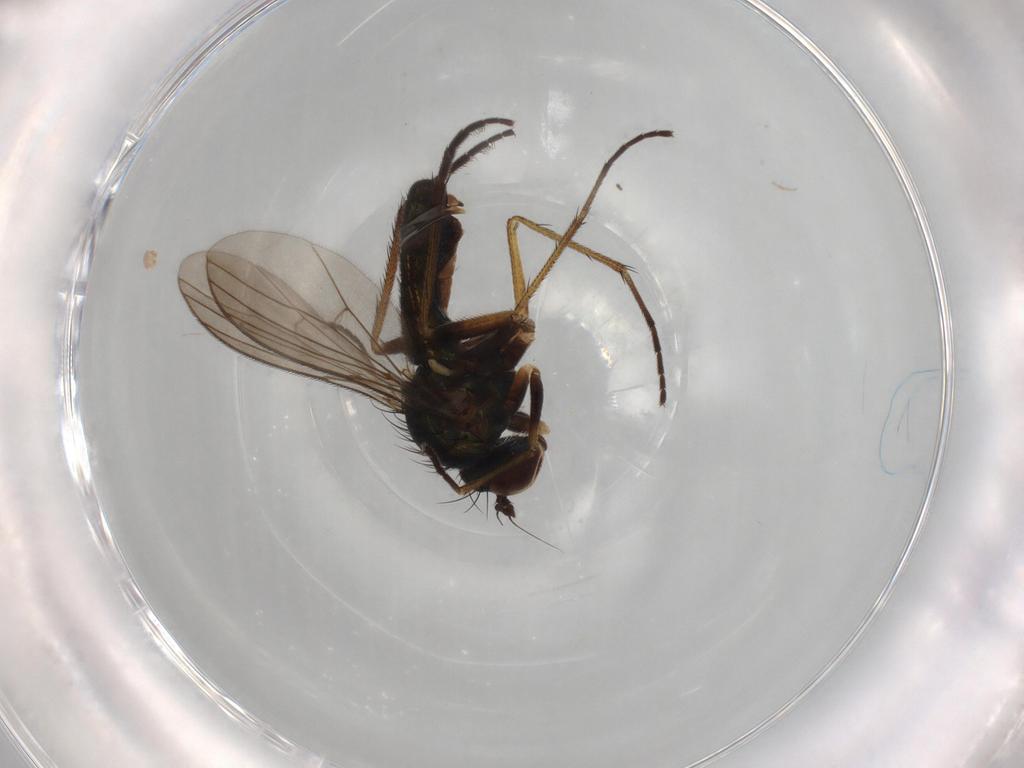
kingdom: Animalia
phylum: Arthropoda
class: Insecta
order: Diptera
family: Dolichopodidae
